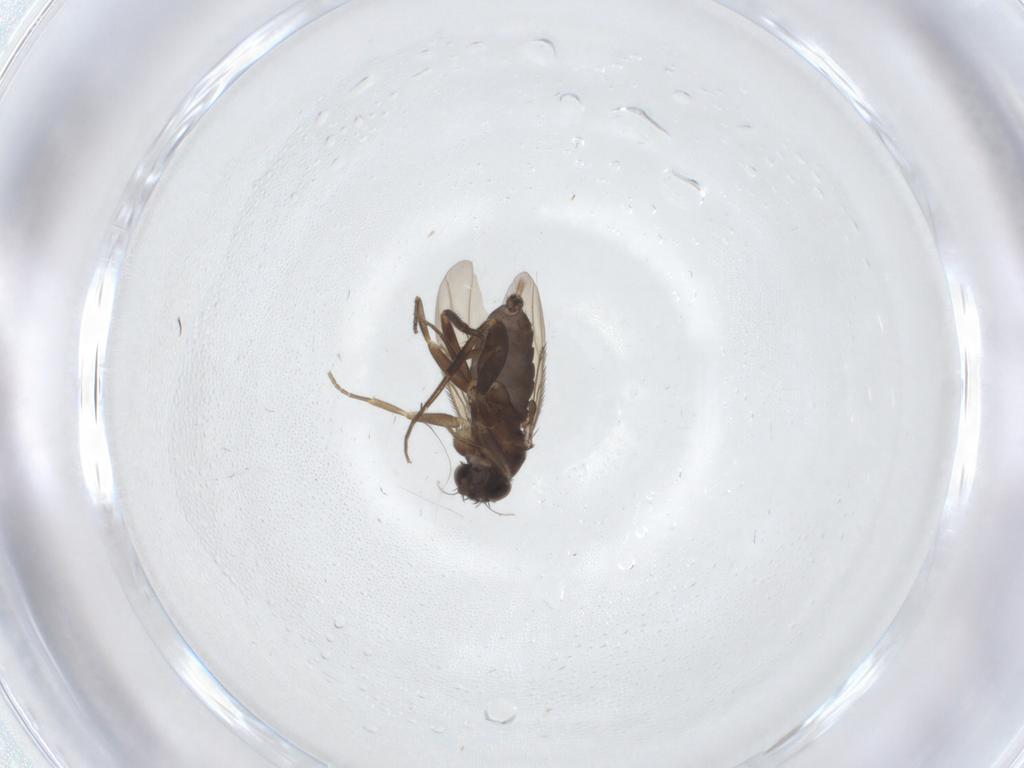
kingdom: Animalia
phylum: Arthropoda
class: Insecta
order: Diptera
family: Phoridae
